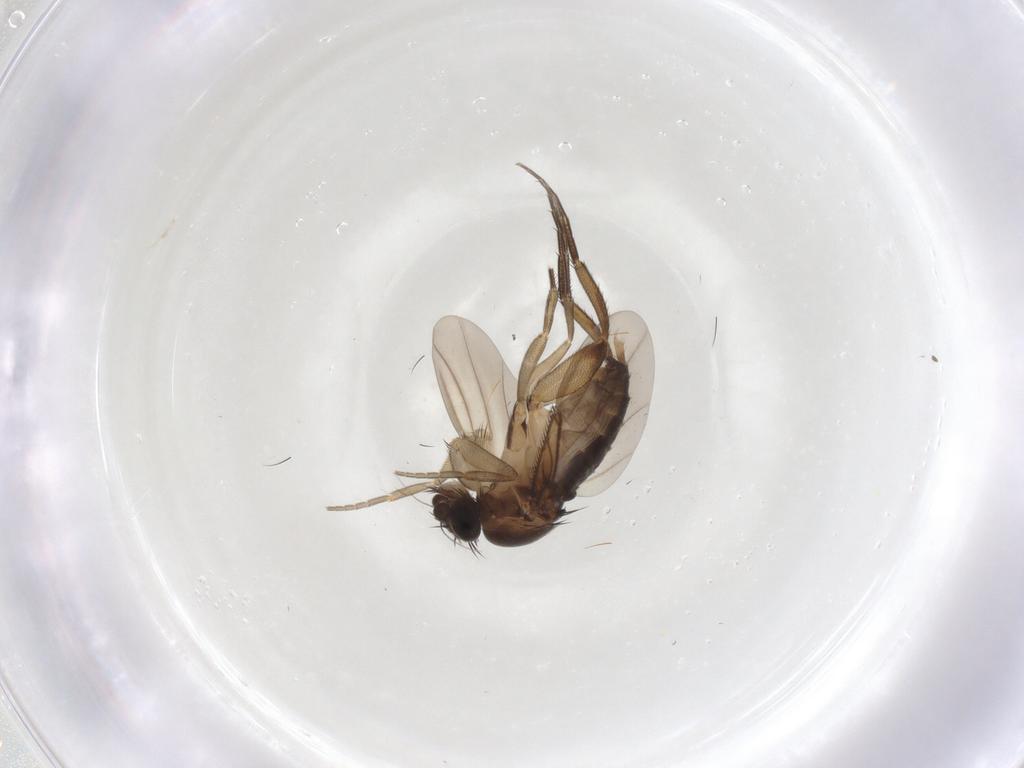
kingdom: Animalia
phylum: Arthropoda
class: Insecta
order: Diptera
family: Phoridae
